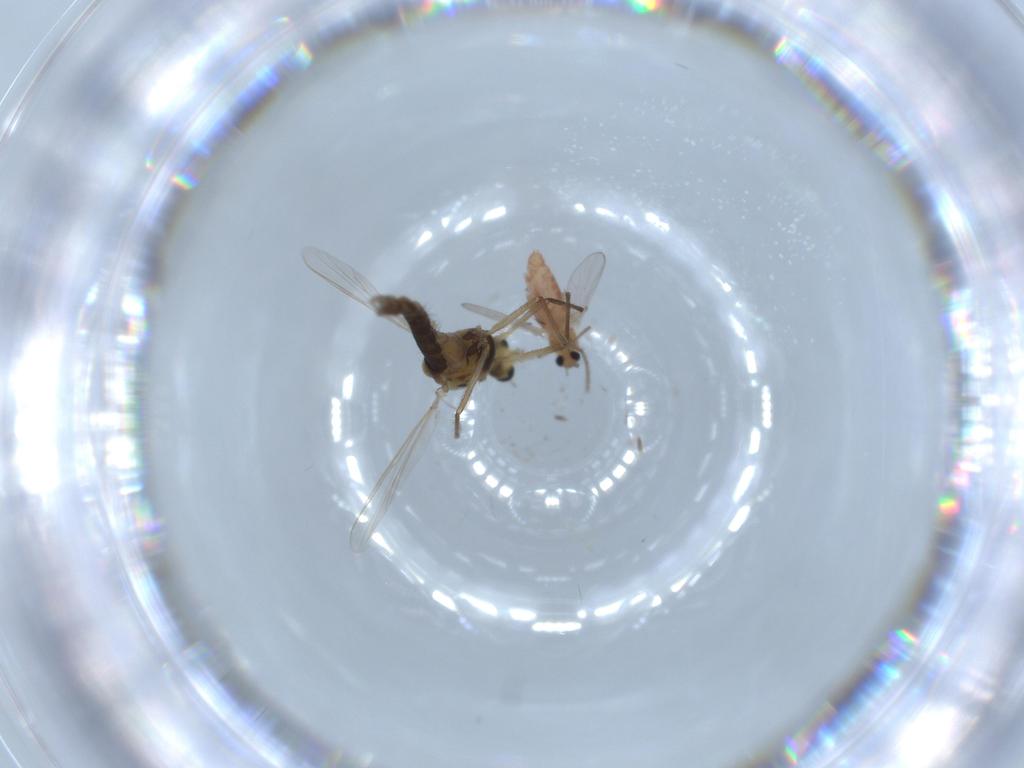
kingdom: Animalia
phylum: Arthropoda
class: Insecta
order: Diptera
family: Chironomidae
